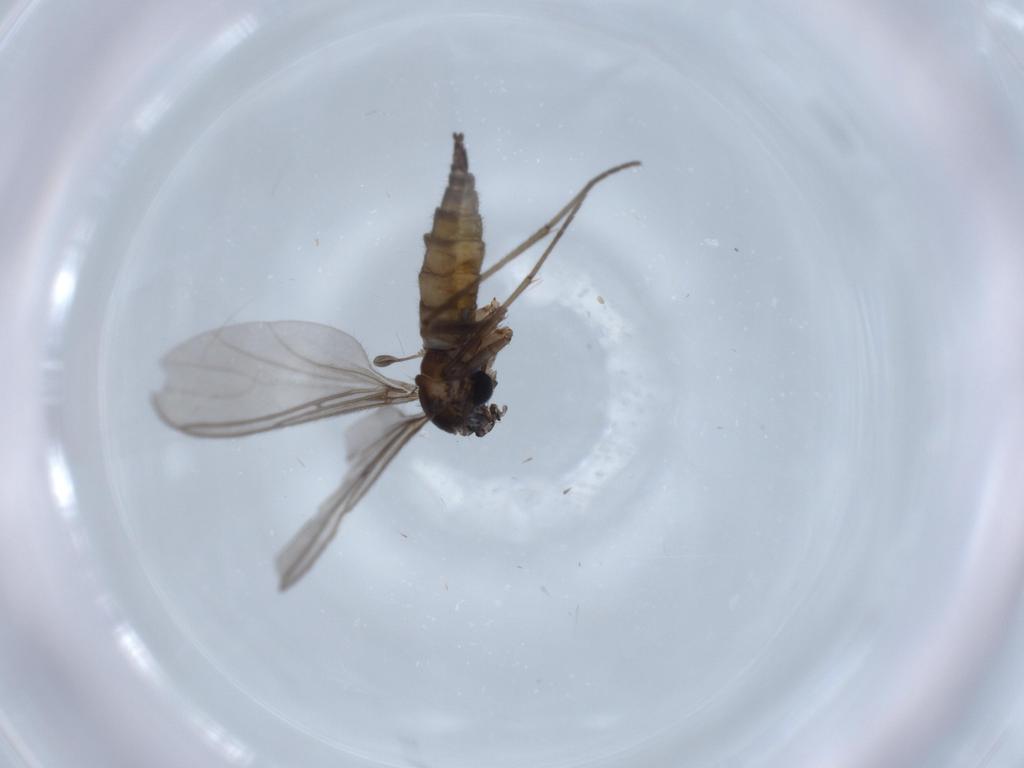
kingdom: Animalia
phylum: Arthropoda
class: Insecta
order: Diptera
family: Sciaridae
